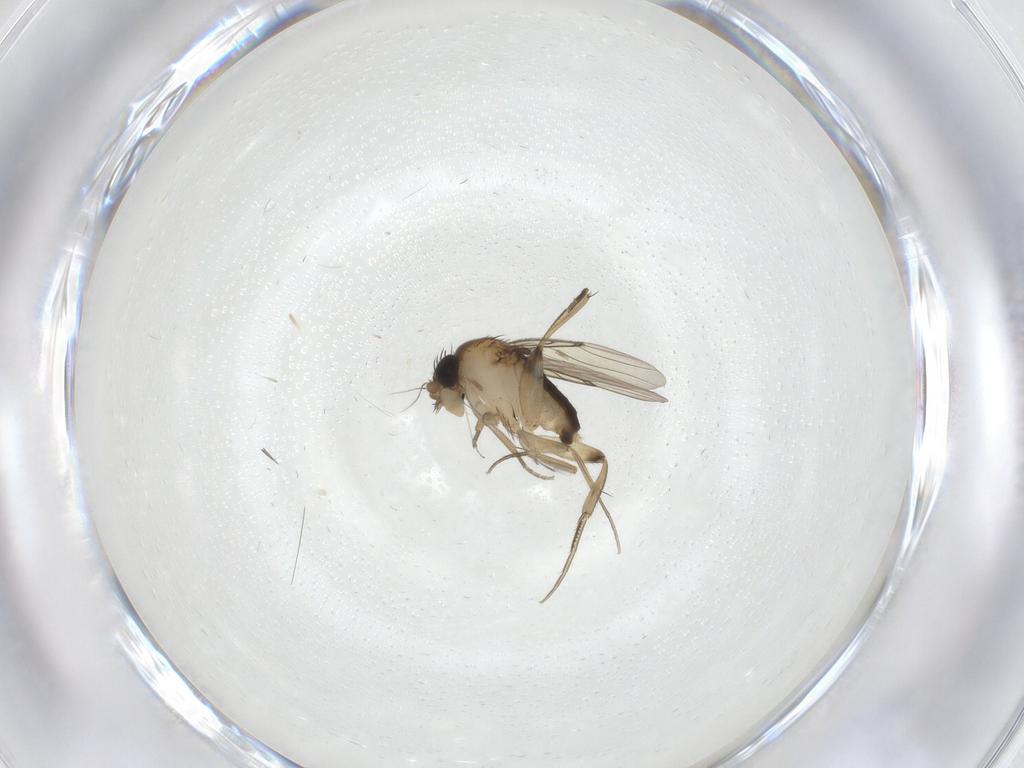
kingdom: Animalia
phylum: Arthropoda
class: Insecta
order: Diptera
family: Phoridae
